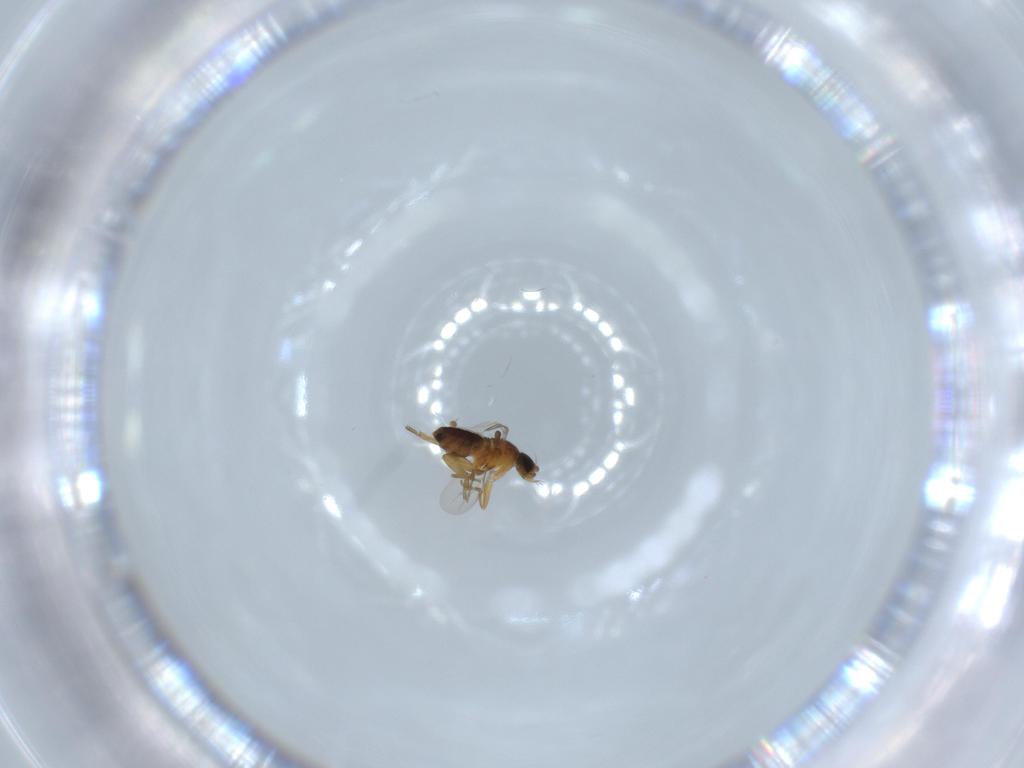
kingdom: Animalia
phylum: Arthropoda
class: Insecta
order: Diptera
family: Phoridae
